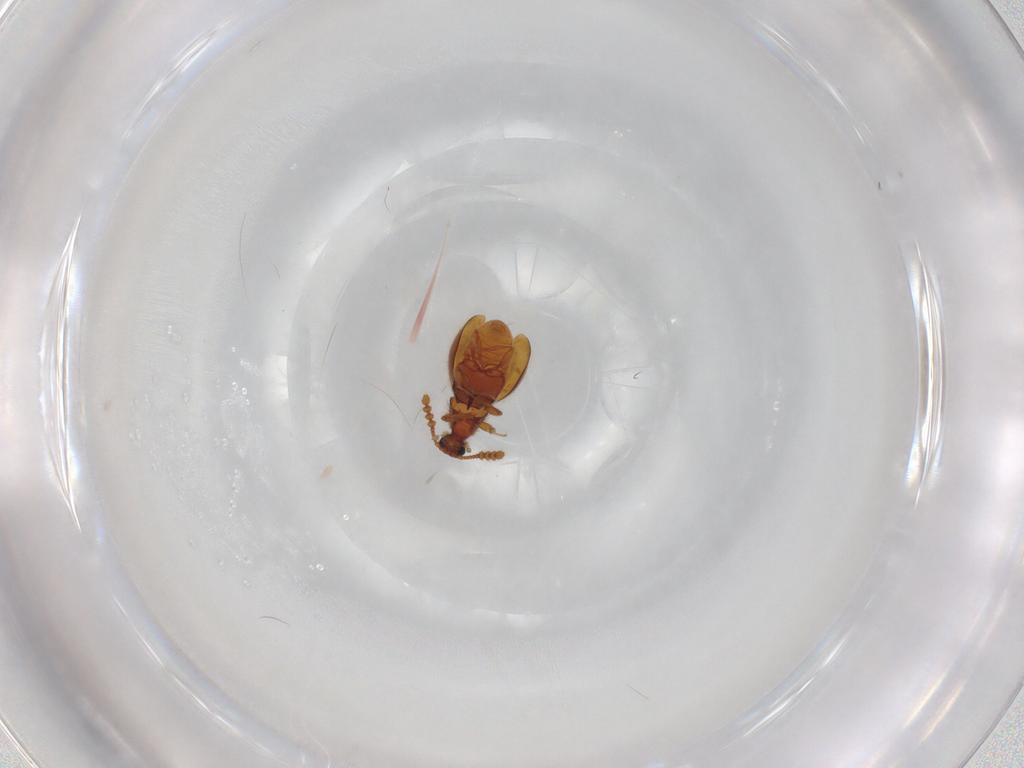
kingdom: Animalia
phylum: Arthropoda
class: Insecta
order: Coleoptera
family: Staphylinidae
